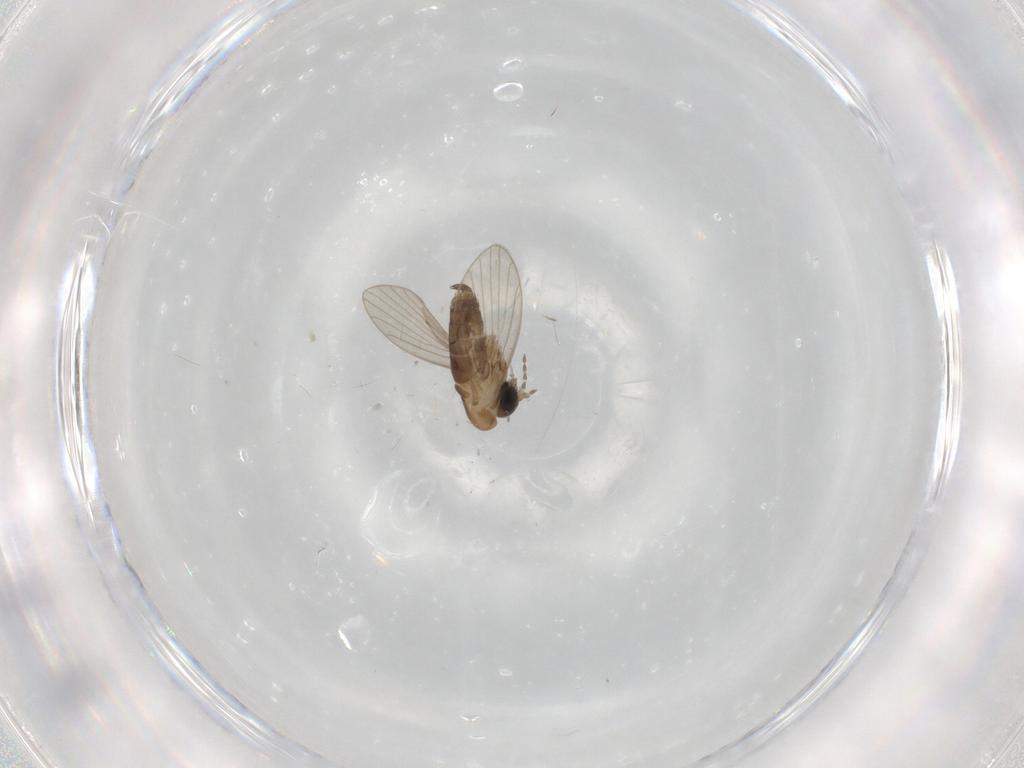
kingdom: Animalia
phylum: Arthropoda
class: Insecta
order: Diptera
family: Psychodidae
